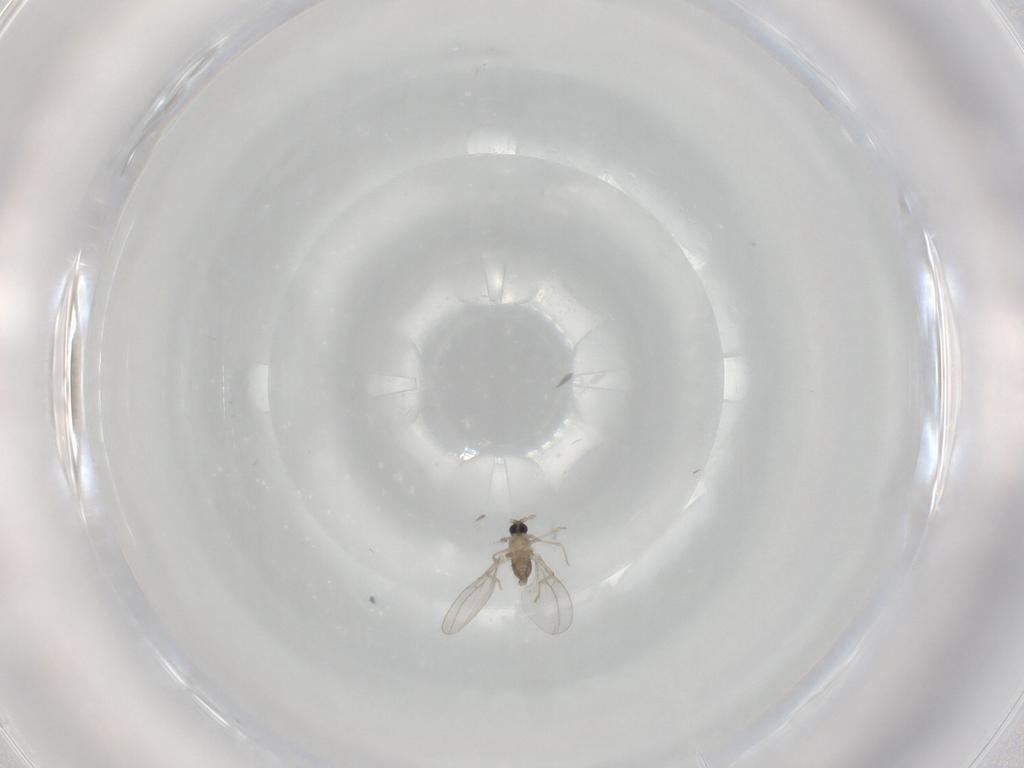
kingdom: Animalia
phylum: Arthropoda
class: Insecta
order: Diptera
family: Cecidomyiidae
